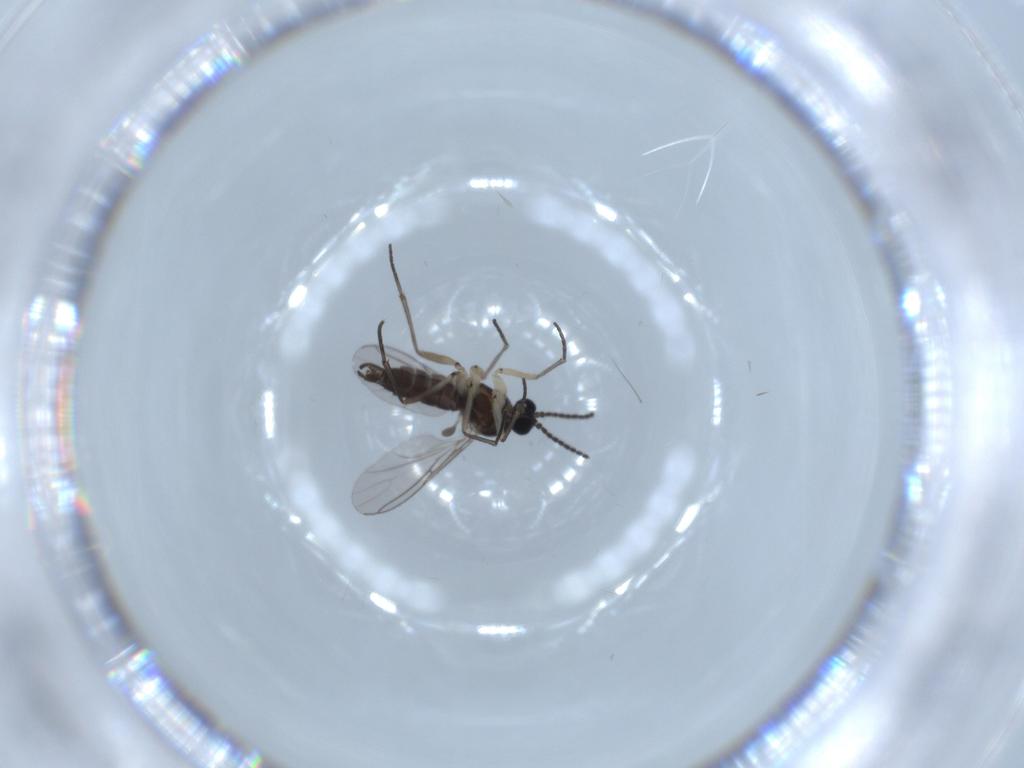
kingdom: Animalia
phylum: Arthropoda
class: Insecta
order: Diptera
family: Sciaridae
